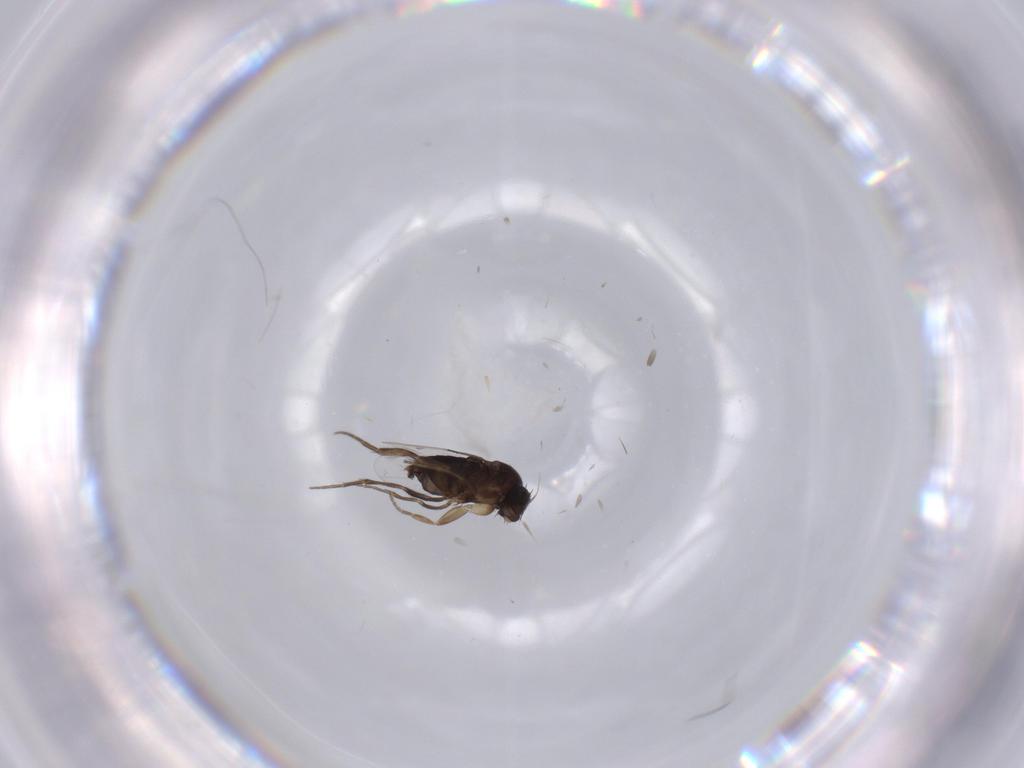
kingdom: Animalia
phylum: Arthropoda
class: Insecta
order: Diptera
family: Phoridae
